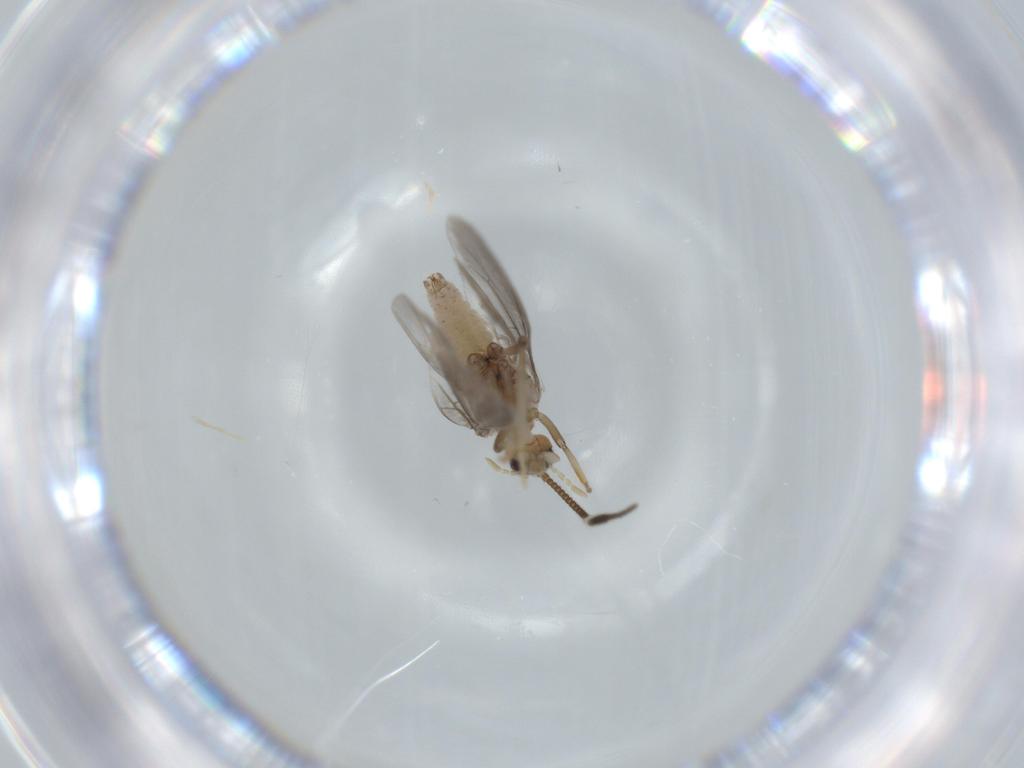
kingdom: Animalia
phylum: Arthropoda
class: Insecta
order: Neuroptera
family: Coniopterygidae
